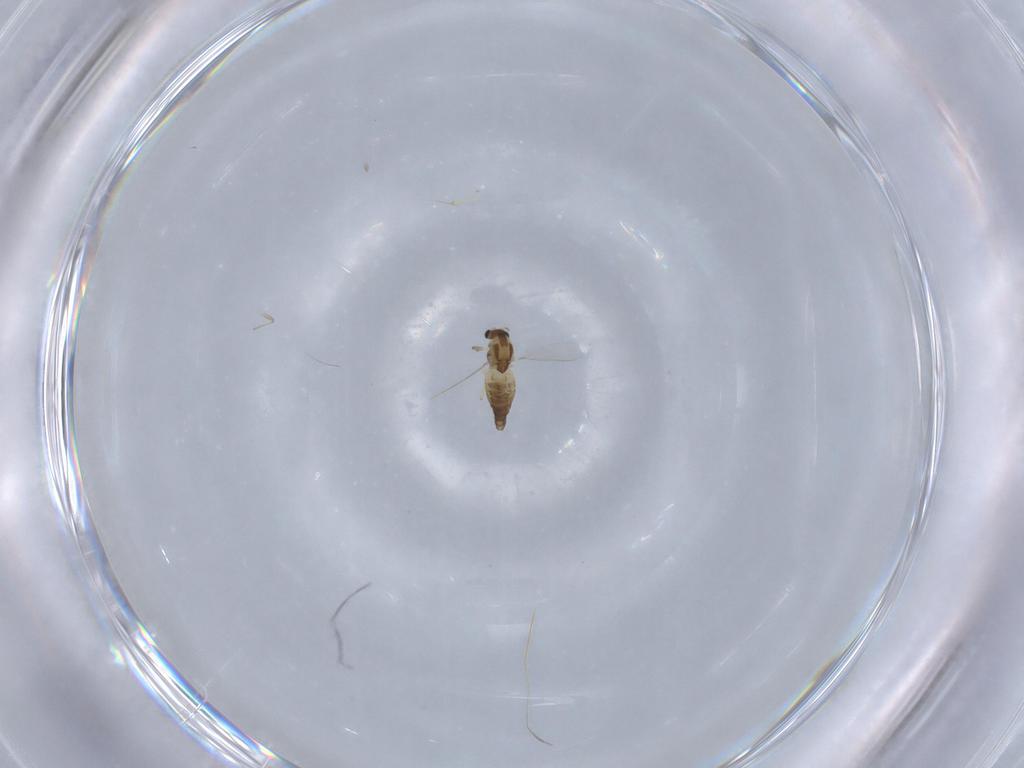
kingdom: Animalia
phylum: Arthropoda
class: Insecta
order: Diptera
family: Chironomidae
